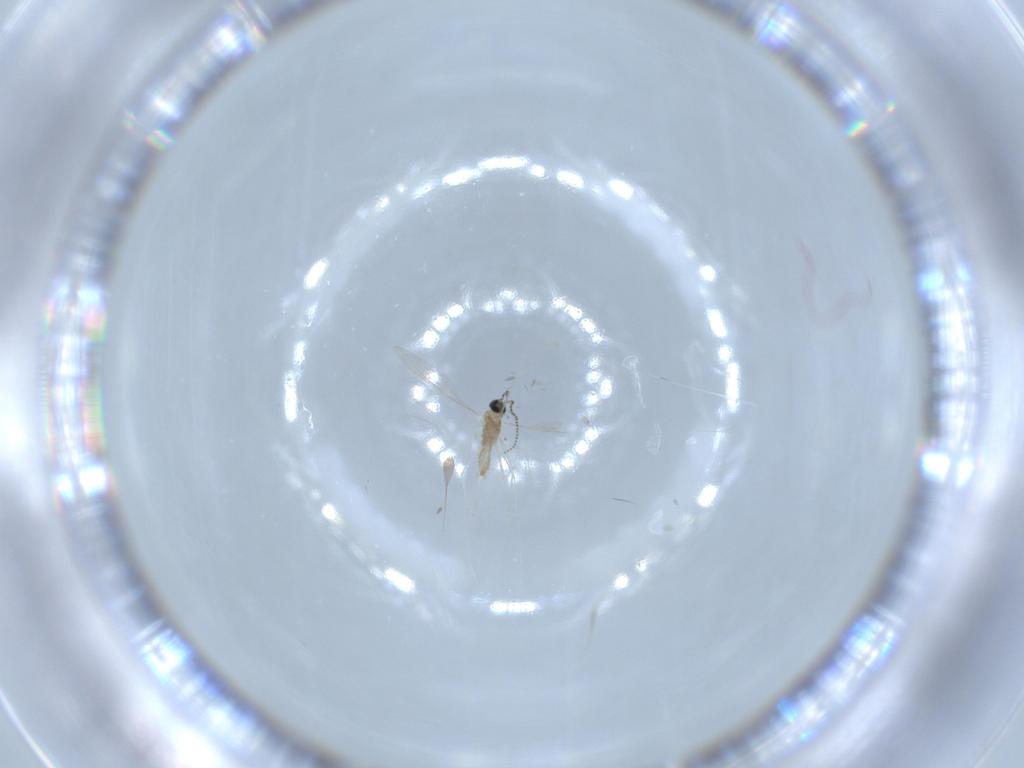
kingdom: Animalia
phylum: Arthropoda
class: Insecta
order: Diptera
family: Cecidomyiidae
